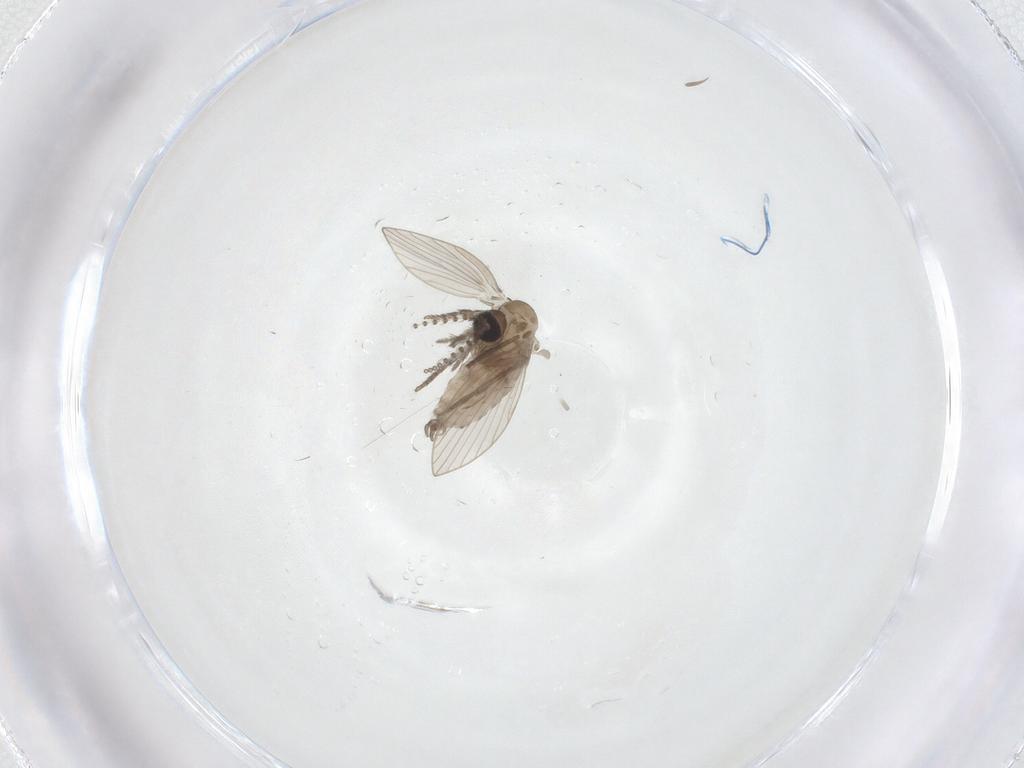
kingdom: Animalia
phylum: Arthropoda
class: Insecta
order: Diptera
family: Psychodidae
